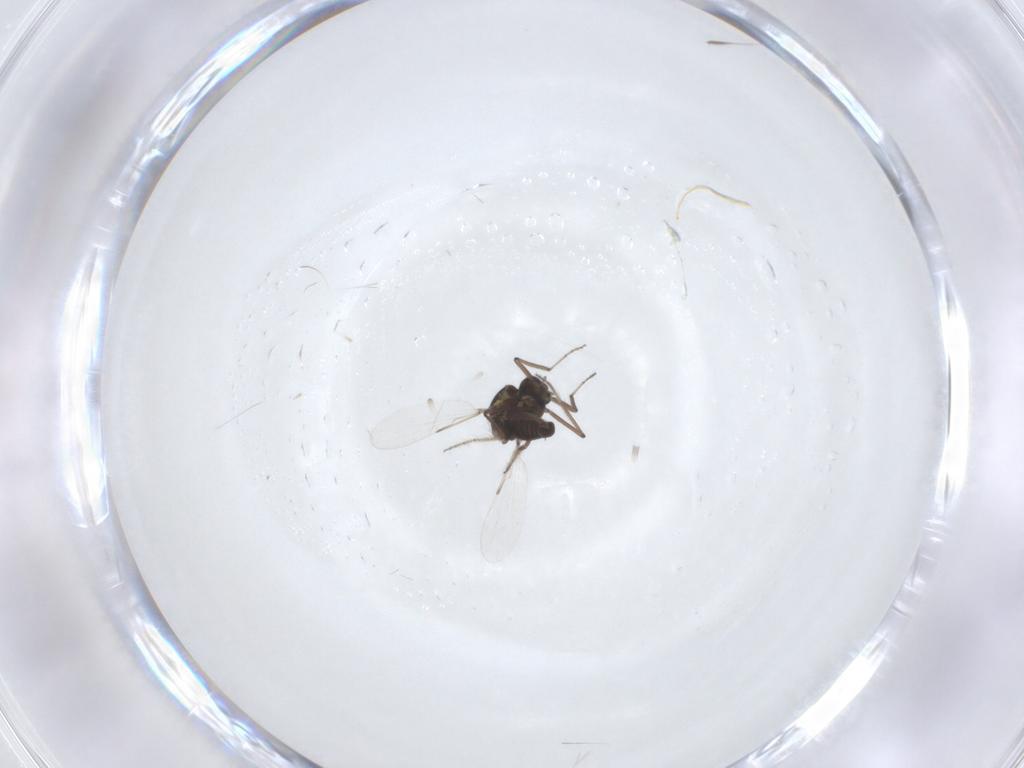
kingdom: Animalia
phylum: Arthropoda
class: Insecta
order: Diptera
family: Ceratopogonidae
